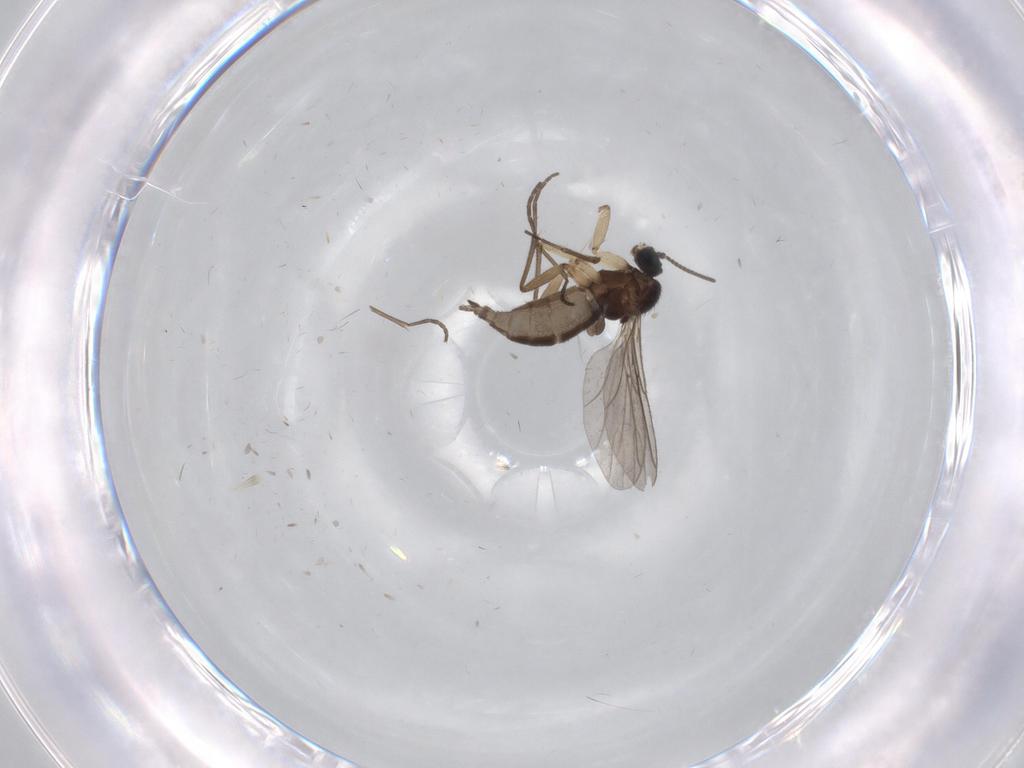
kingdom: Animalia
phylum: Arthropoda
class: Insecta
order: Diptera
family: Sciaridae
